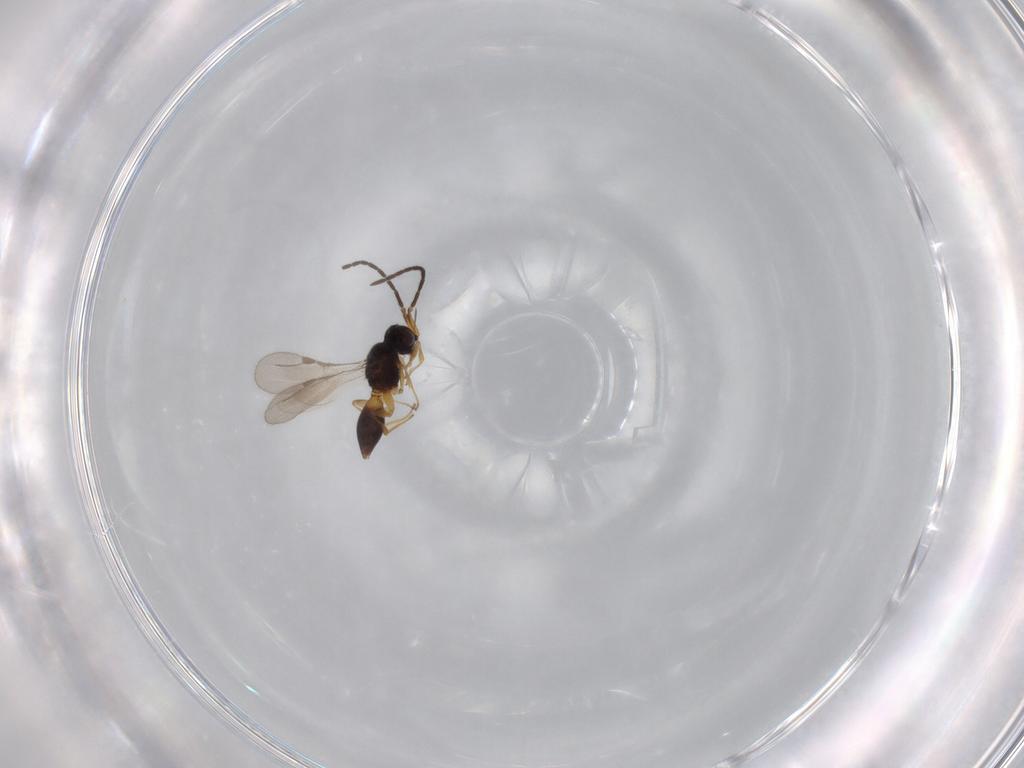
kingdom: Animalia
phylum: Arthropoda
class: Insecta
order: Hymenoptera
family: Megaspilidae
